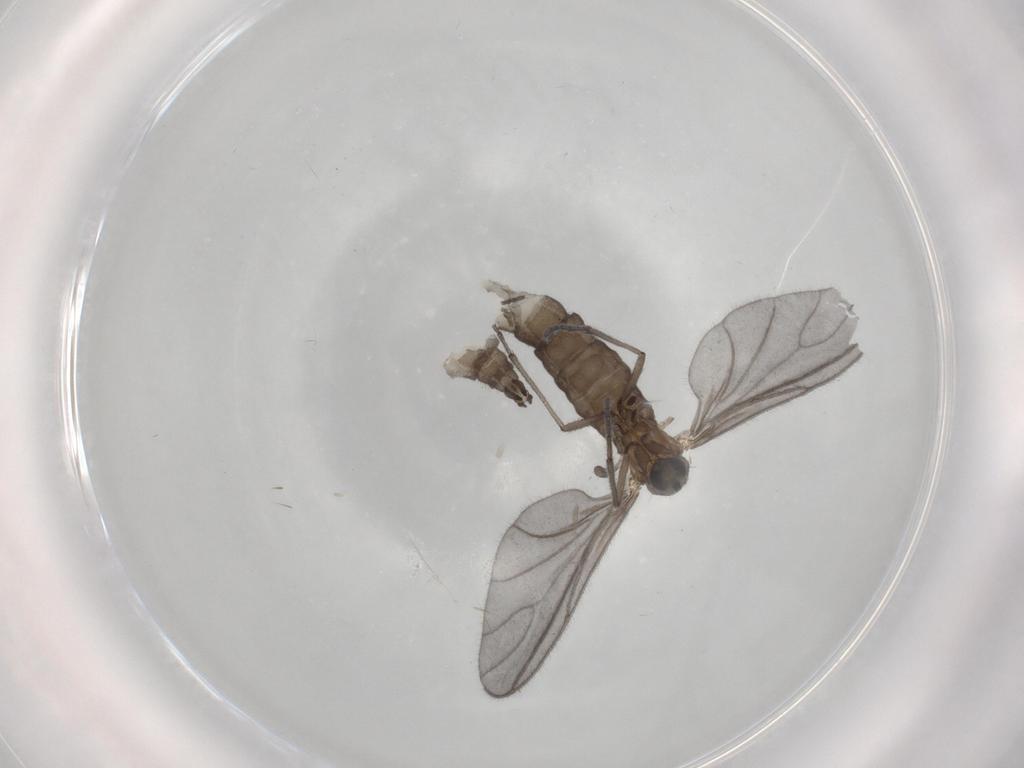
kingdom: Animalia
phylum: Arthropoda
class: Insecta
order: Diptera
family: Sciaridae
